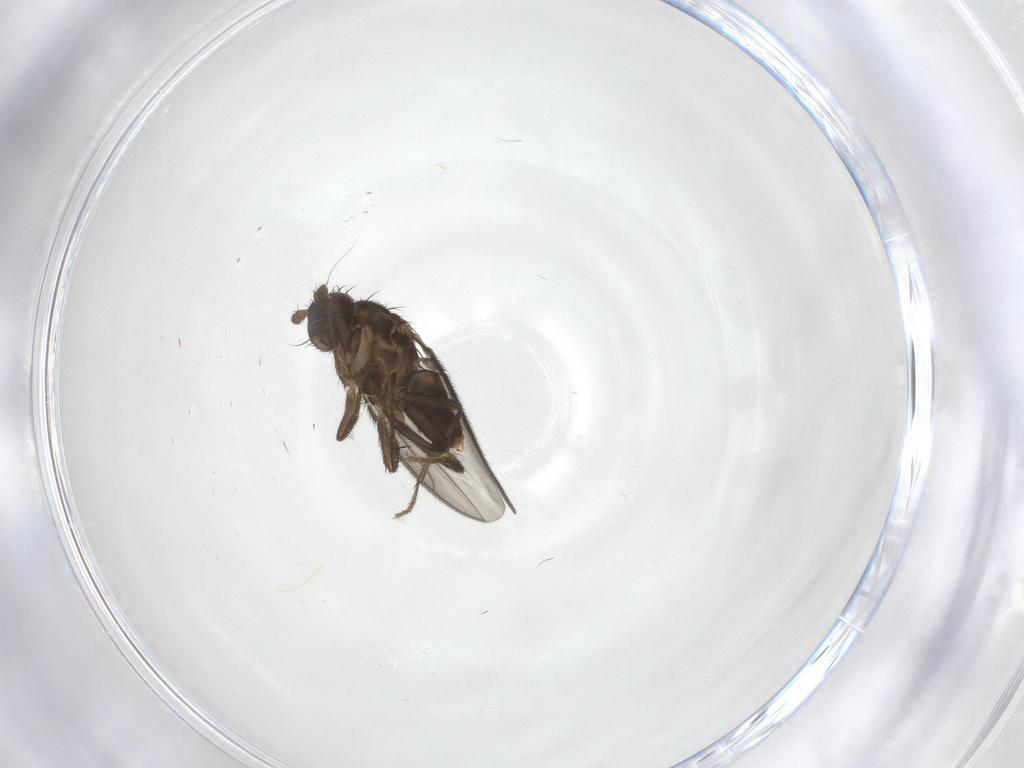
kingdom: Animalia
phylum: Arthropoda
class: Insecta
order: Diptera
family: Sphaeroceridae
